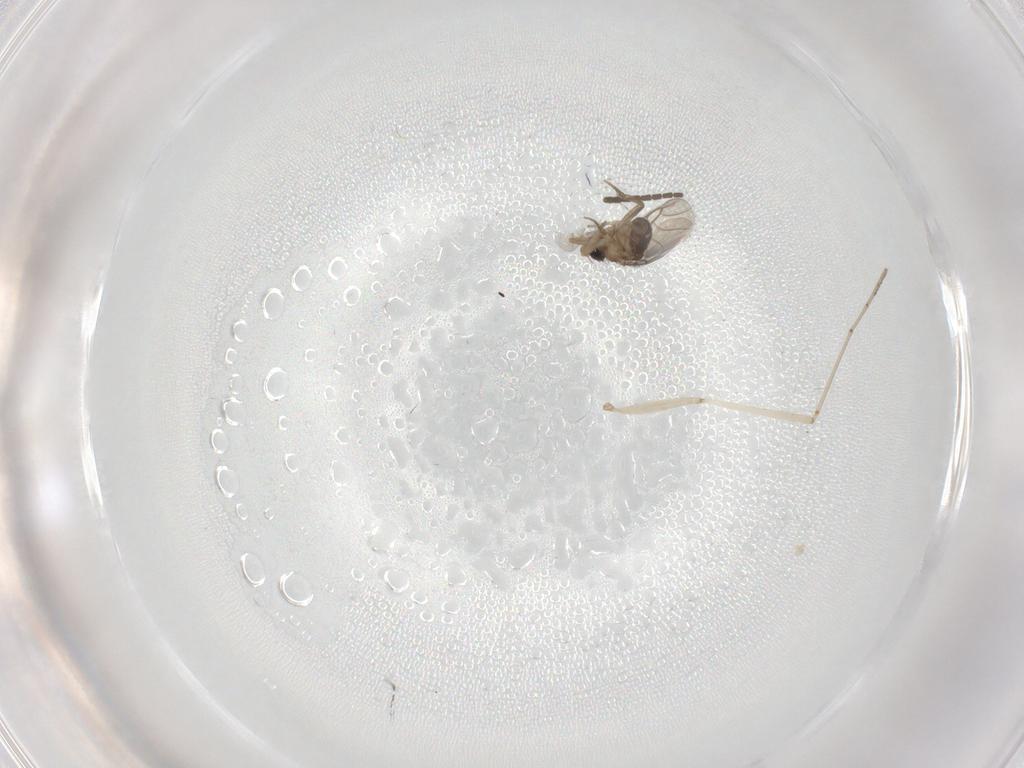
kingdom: Animalia
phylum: Arthropoda
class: Insecta
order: Diptera
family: Sciaridae
